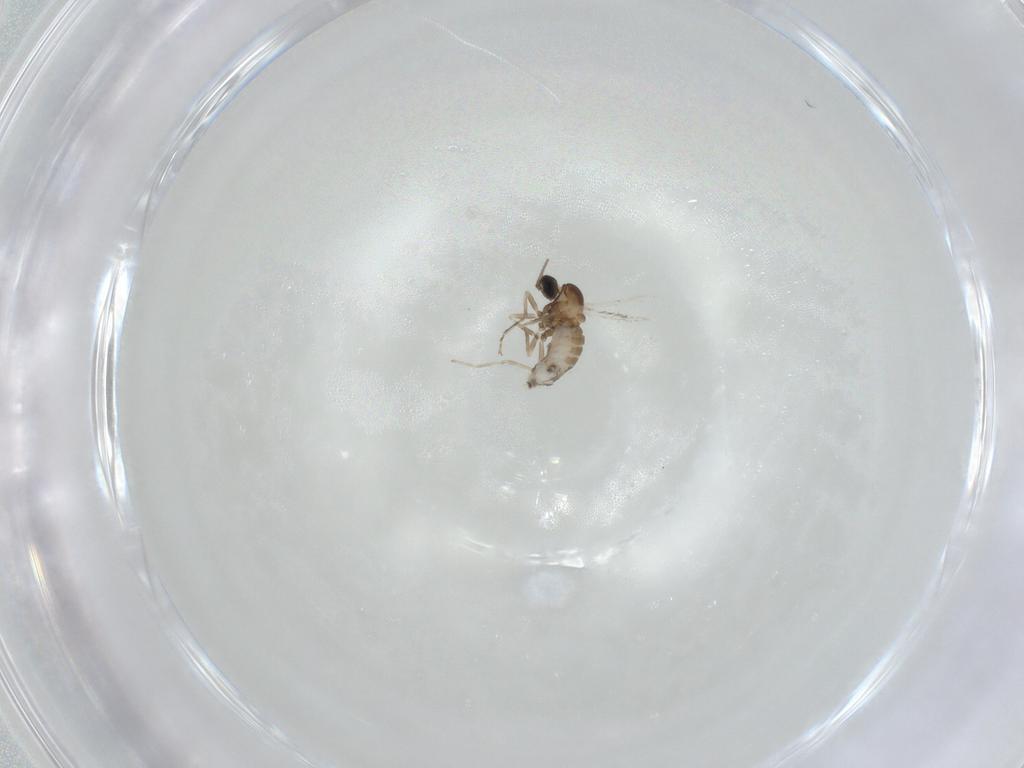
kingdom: Animalia
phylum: Arthropoda
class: Insecta
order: Diptera
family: Cecidomyiidae
